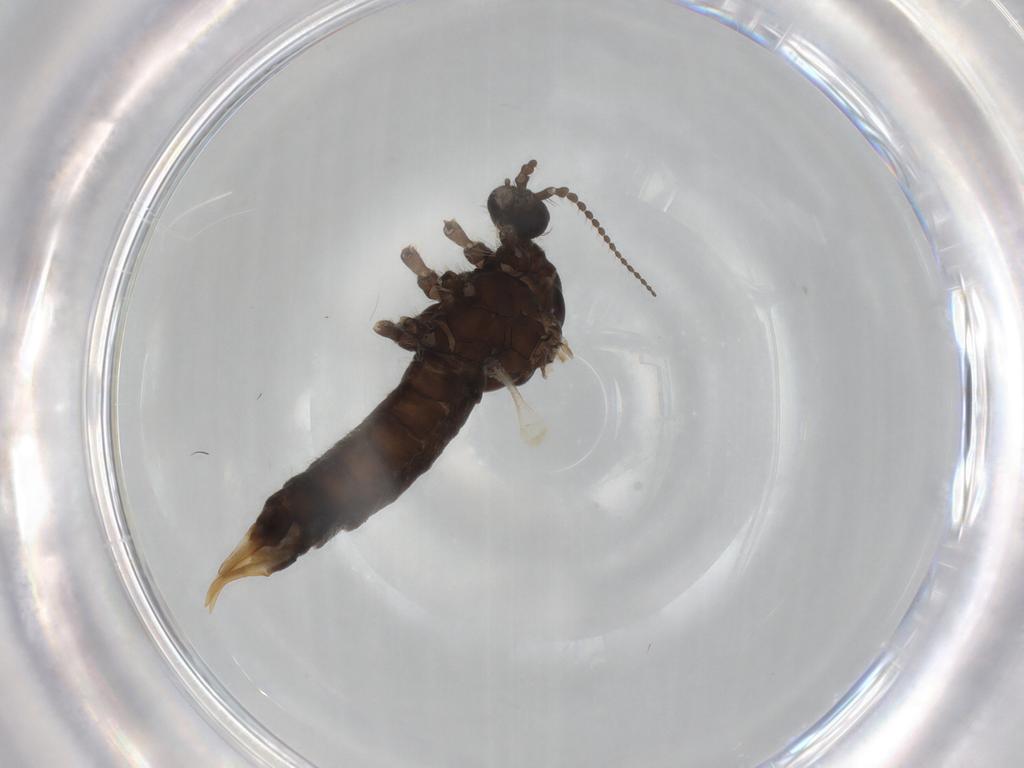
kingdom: Animalia
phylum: Arthropoda
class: Insecta
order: Diptera
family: Limoniidae
